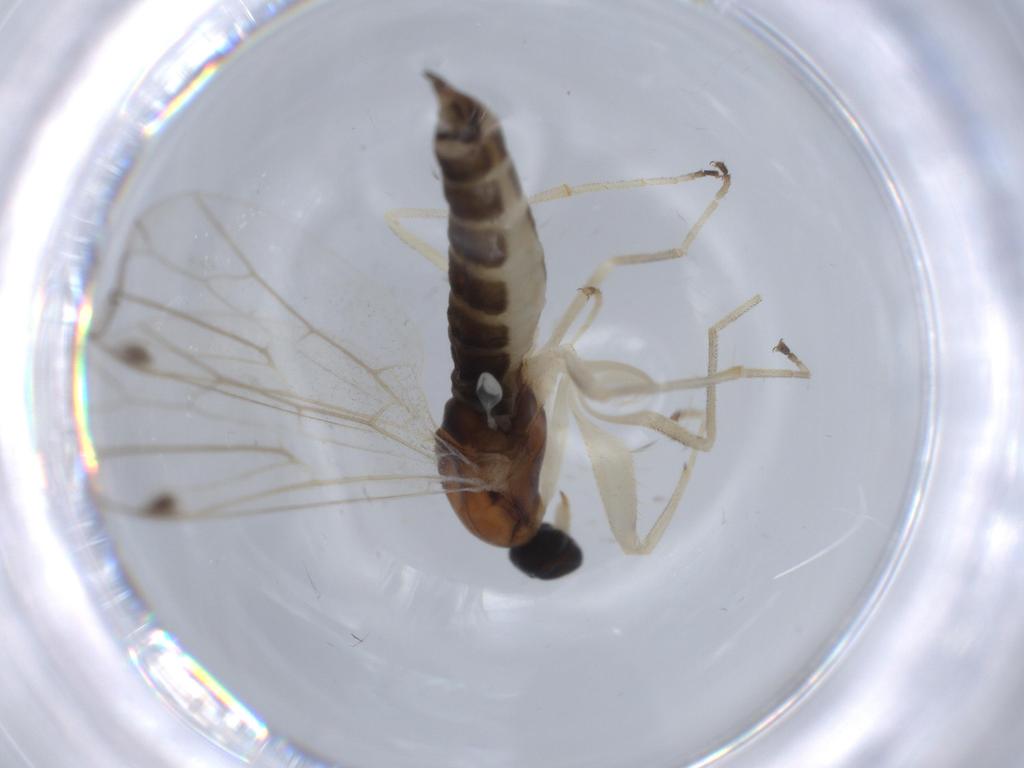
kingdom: Animalia
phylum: Arthropoda
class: Insecta
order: Diptera
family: Empididae
